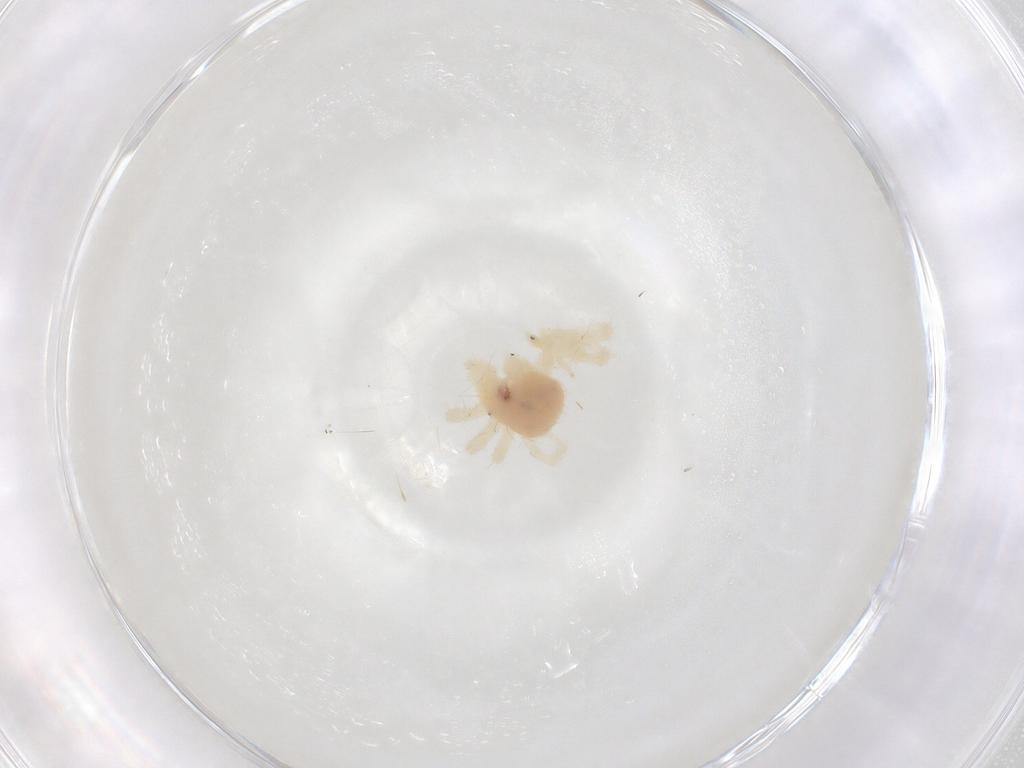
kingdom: Animalia
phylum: Arthropoda
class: Arachnida
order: Trombidiformes
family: Anystidae
